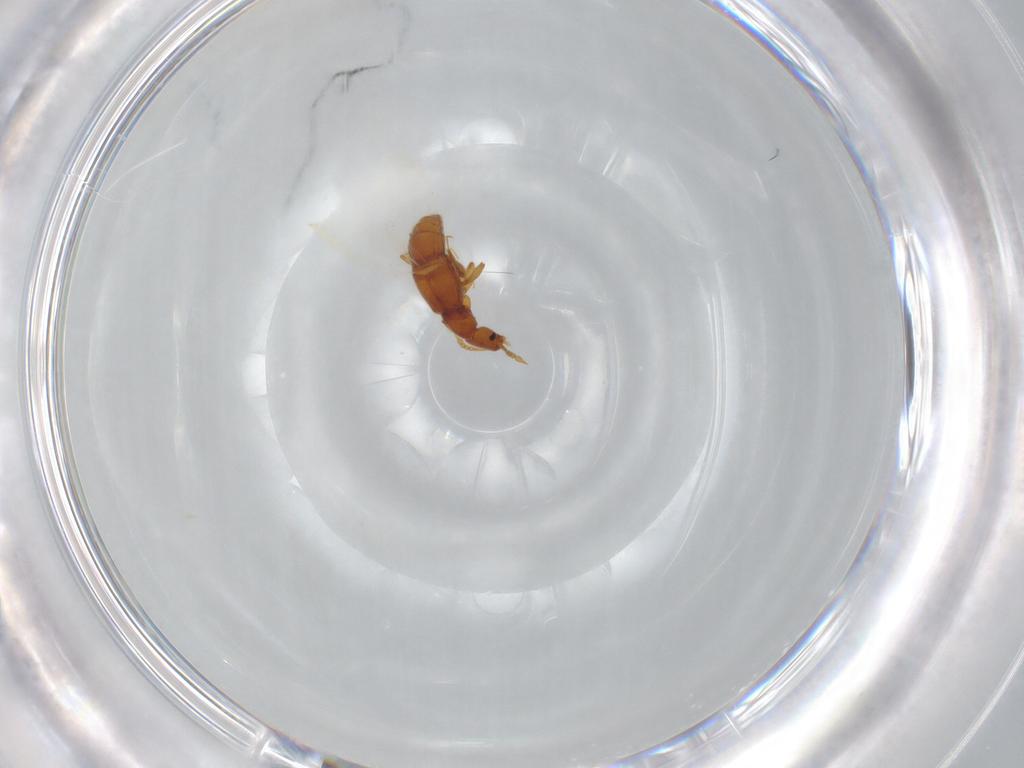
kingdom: Animalia
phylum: Arthropoda
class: Insecta
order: Coleoptera
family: Staphylinidae
